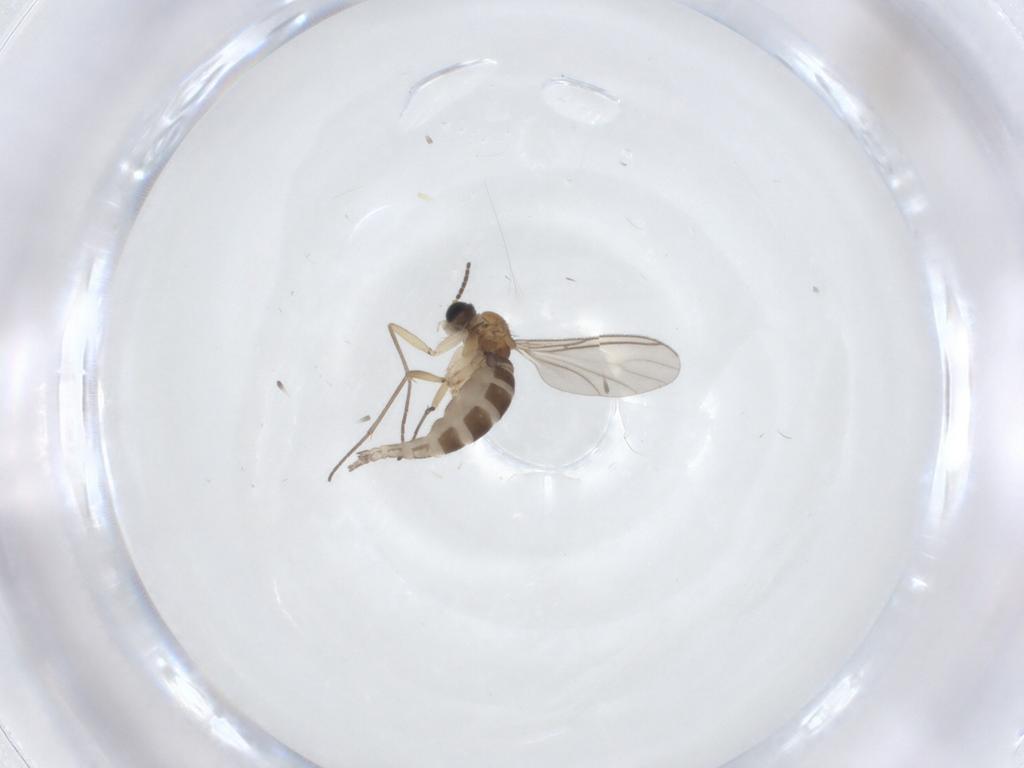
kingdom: Animalia
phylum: Arthropoda
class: Insecta
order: Diptera
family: Sciaridae
